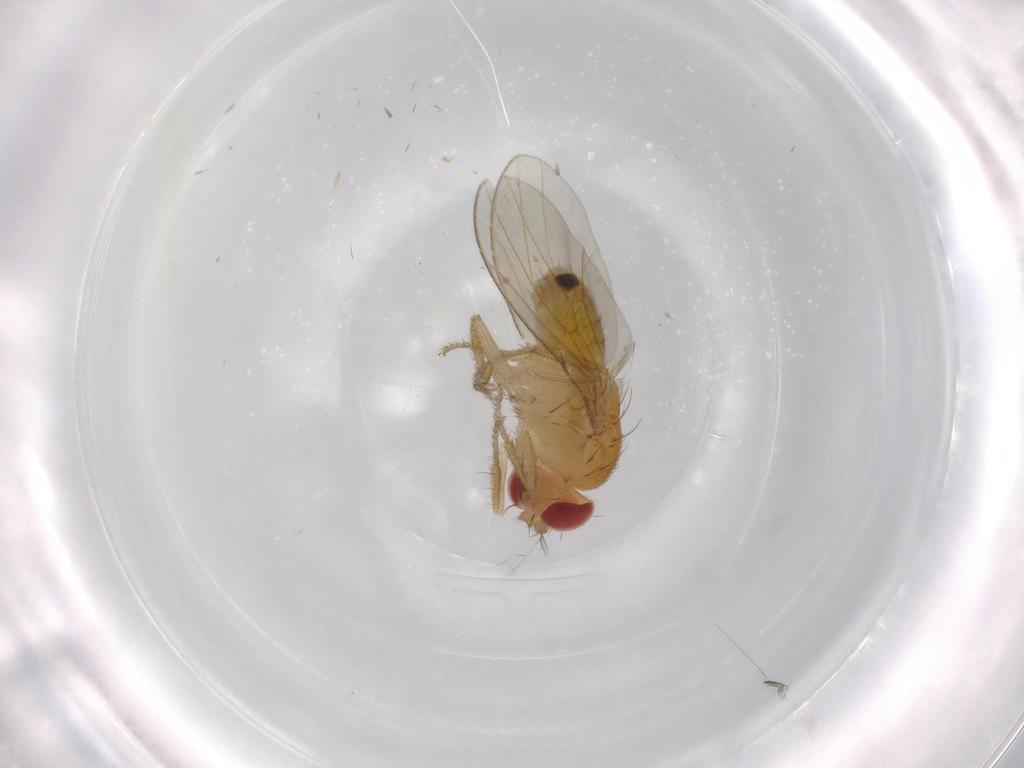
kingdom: Animalia
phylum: Arthropoda
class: Insecta
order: Diptera
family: Drosophilidae
